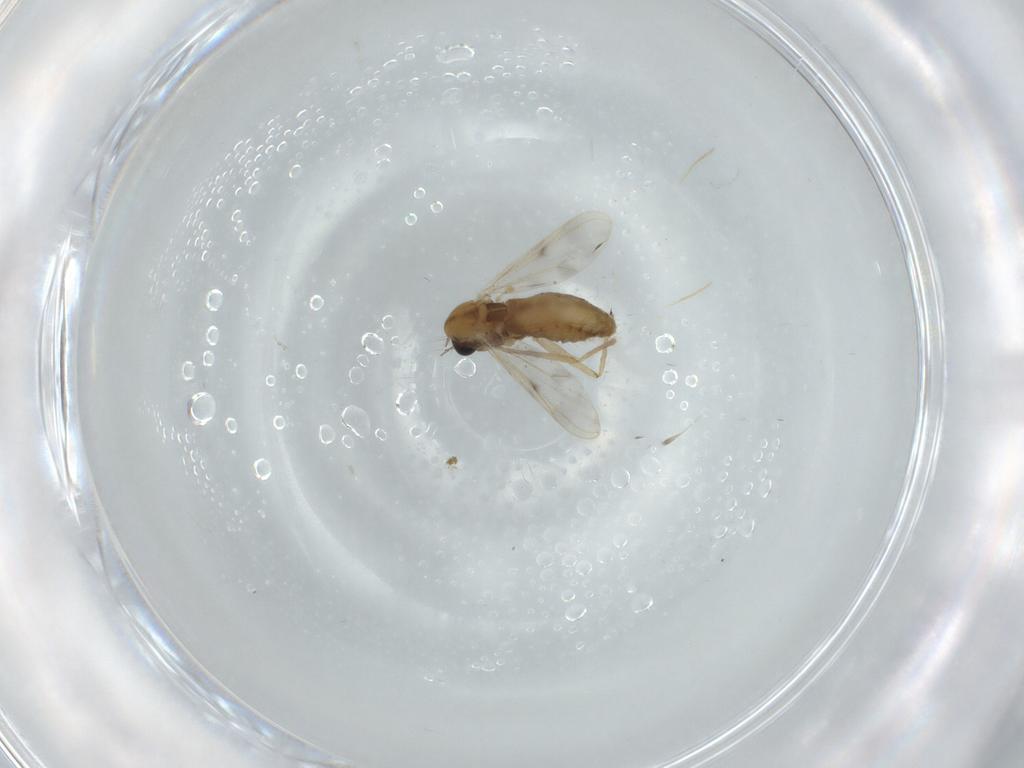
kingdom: Animalia
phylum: Arthropoda
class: Insecta
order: Diptera
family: Chironomidae
